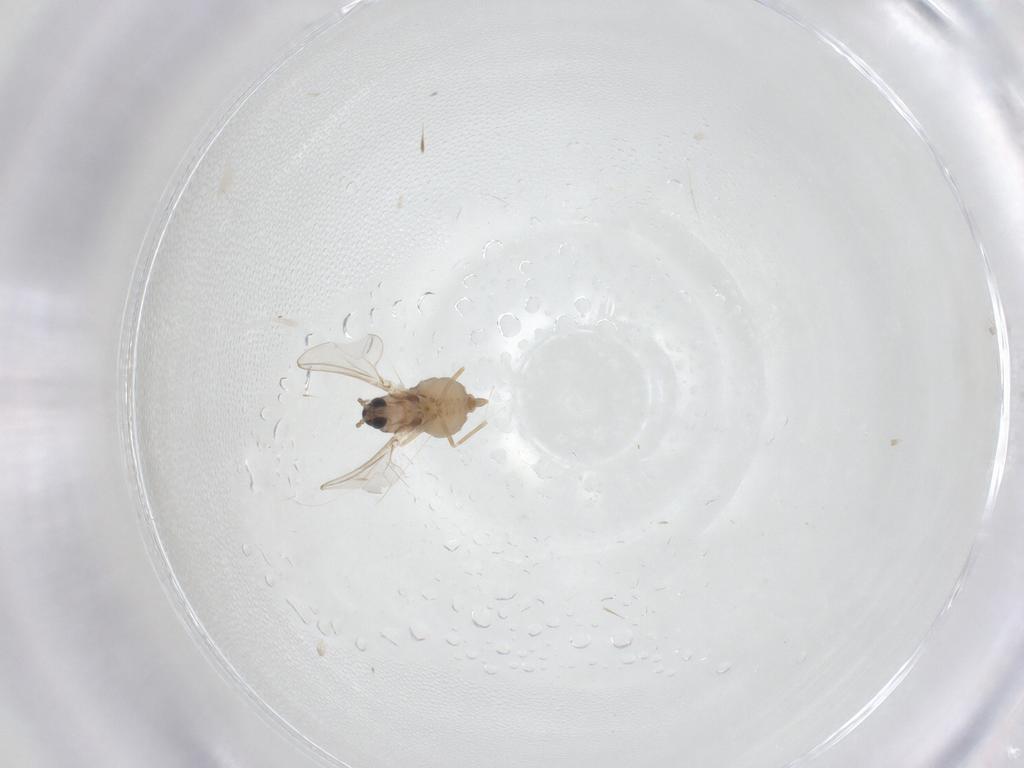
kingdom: Animalia
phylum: Arthropoda
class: Insecta
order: Diptera
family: Cecidomyiidae
